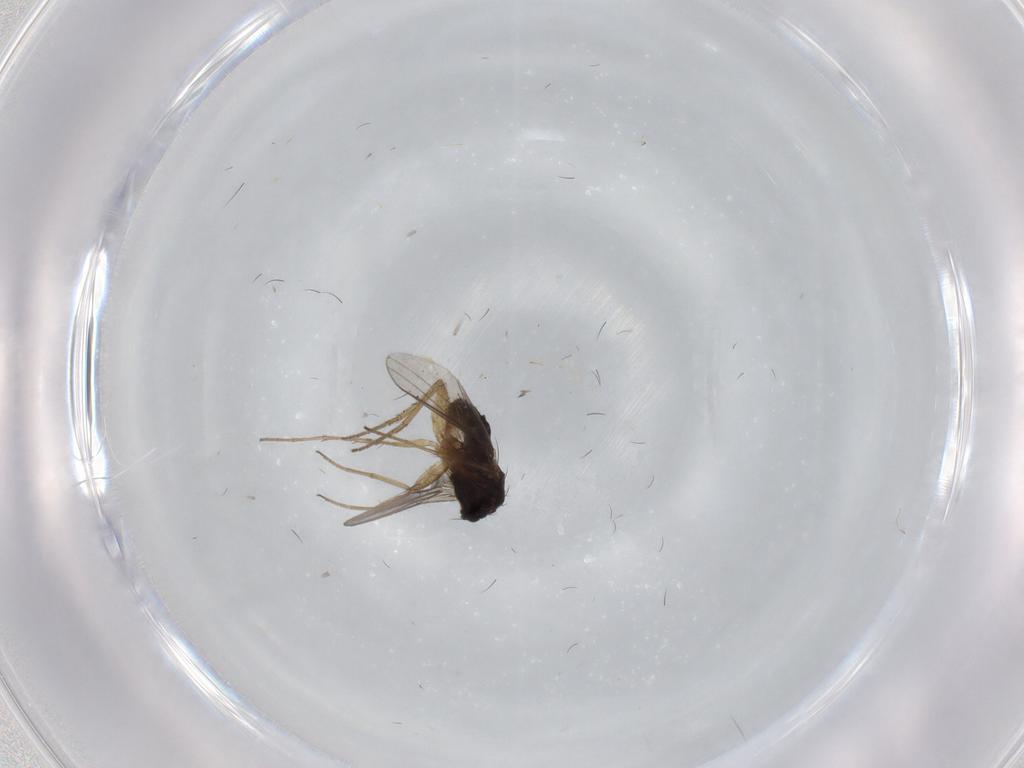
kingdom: Animalia
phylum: Arthropoda
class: Insecta
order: Diptera
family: Dolichopodidae
